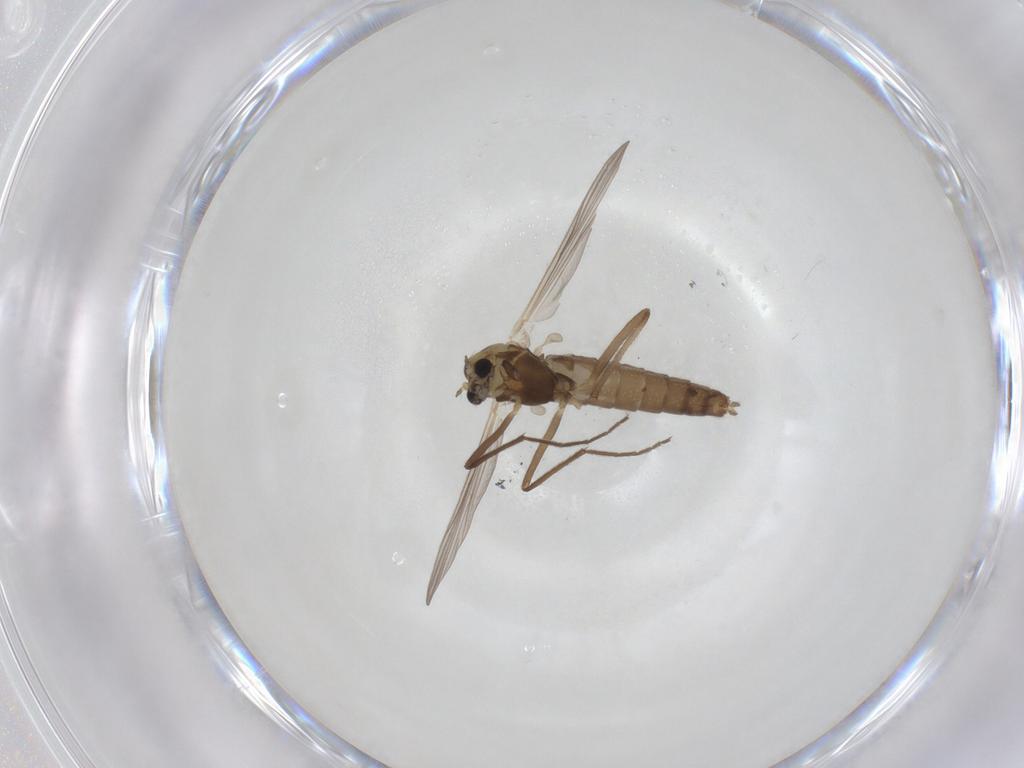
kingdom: Animalia
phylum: Arthropoda
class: Insecta
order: Diptera
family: Chironomidae
